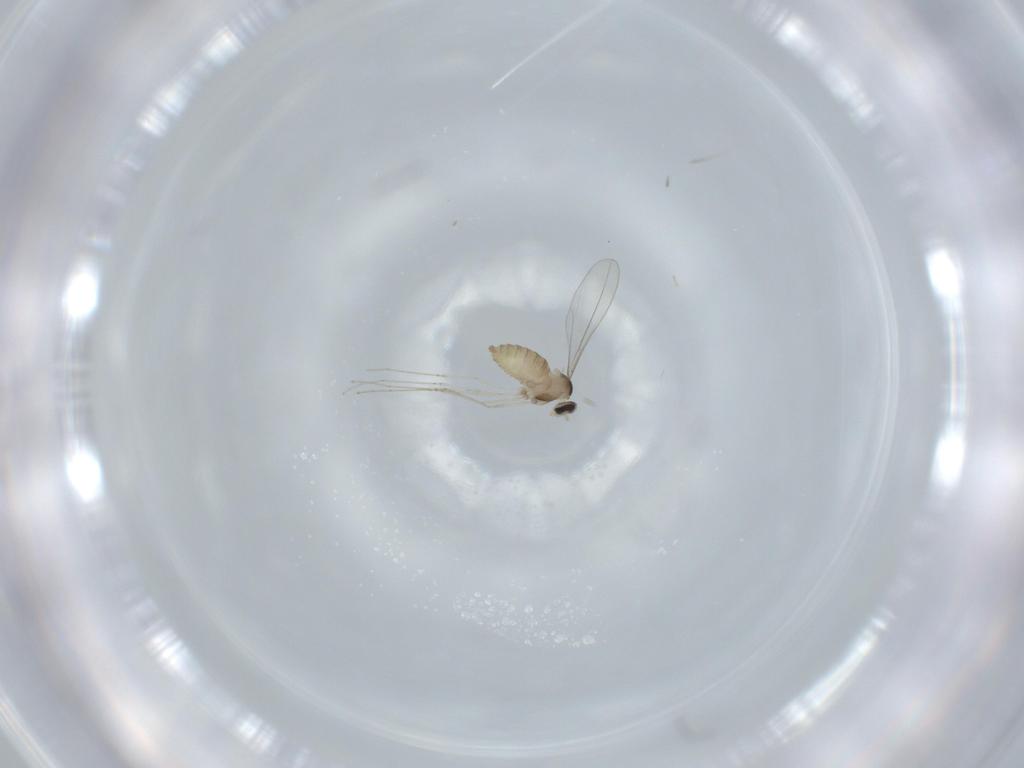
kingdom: Animalia
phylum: Arthropoda
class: Insecta
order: Diptera
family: Cecidomyiidae
